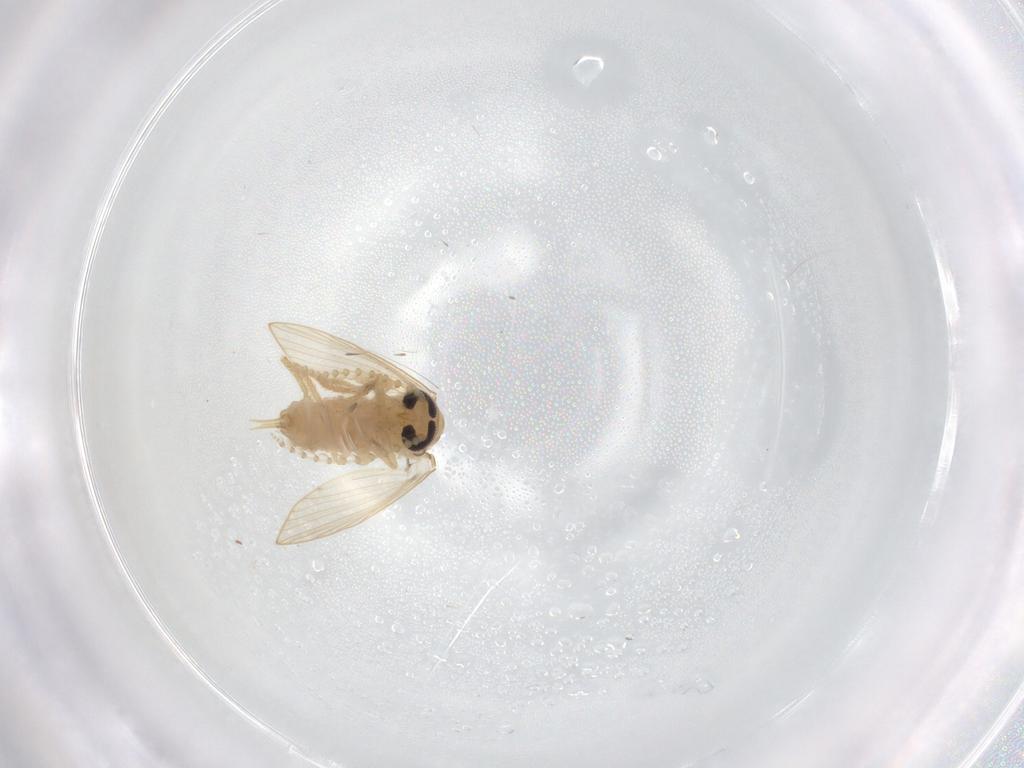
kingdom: Animalia
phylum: Arthropoda
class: Insecta
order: Diptera
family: Psychodidae
